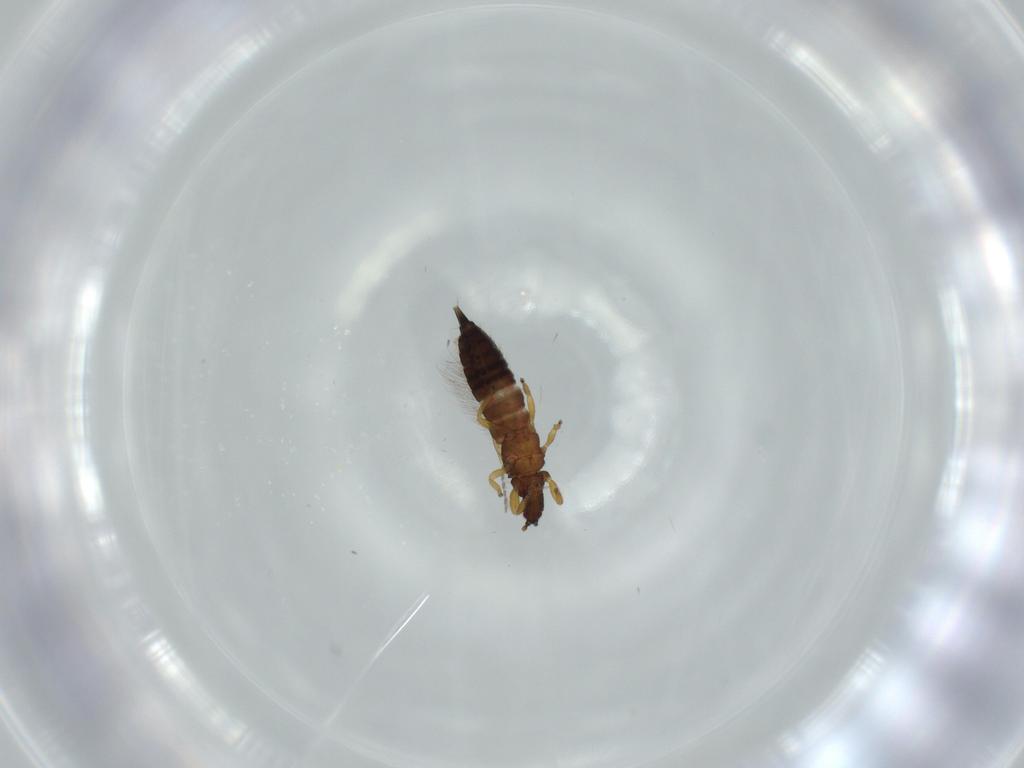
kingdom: Animalia
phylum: Arthropoda
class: Insecta
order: Thysanoptera
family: Phlaeothripidae
